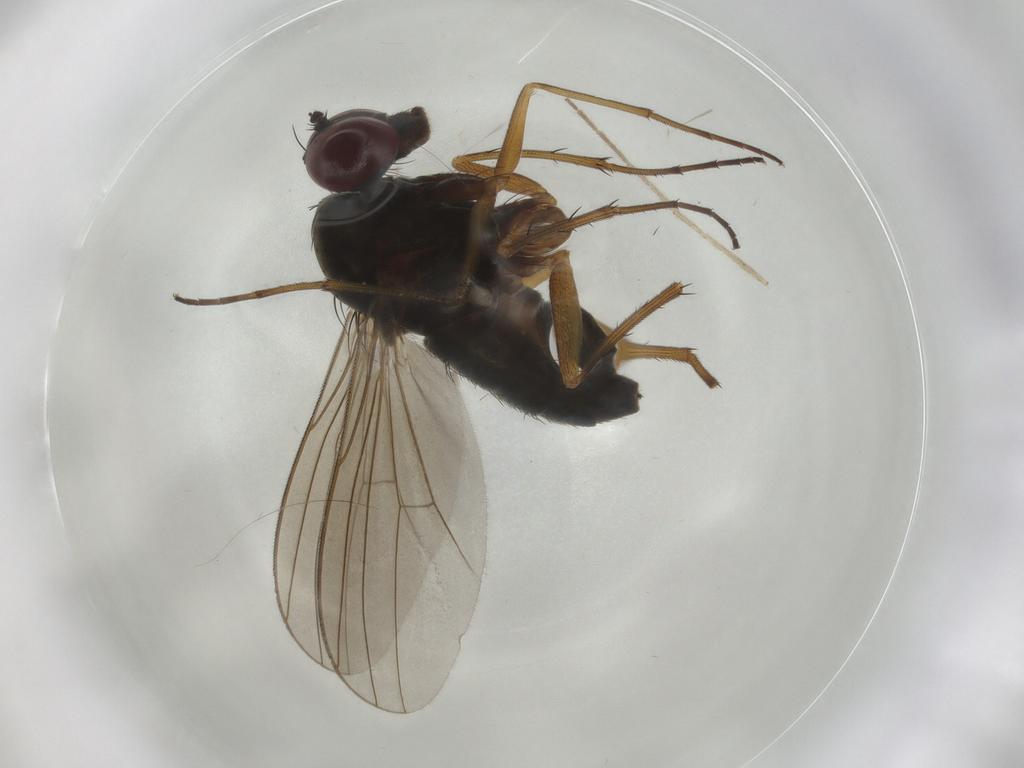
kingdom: Animalia
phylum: Arthropoda
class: Insecta
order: Diptera
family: Dolichopodidae
